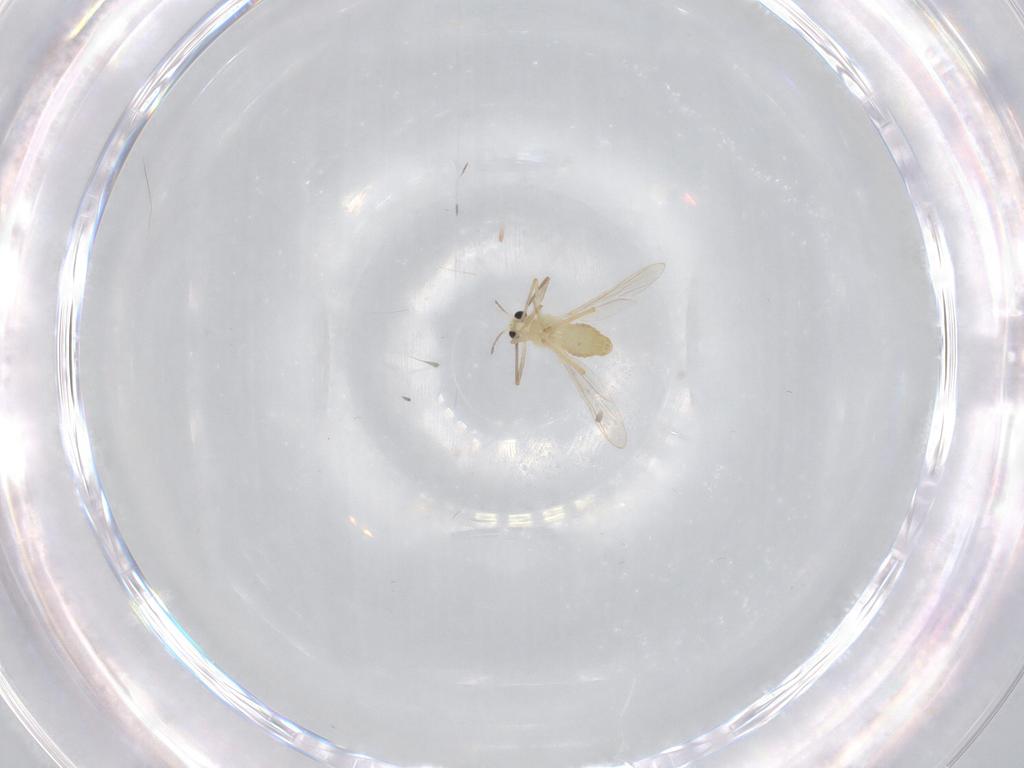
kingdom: Animalia
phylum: Arthropoda
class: Insecta
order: Diptera
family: Chironomidae
